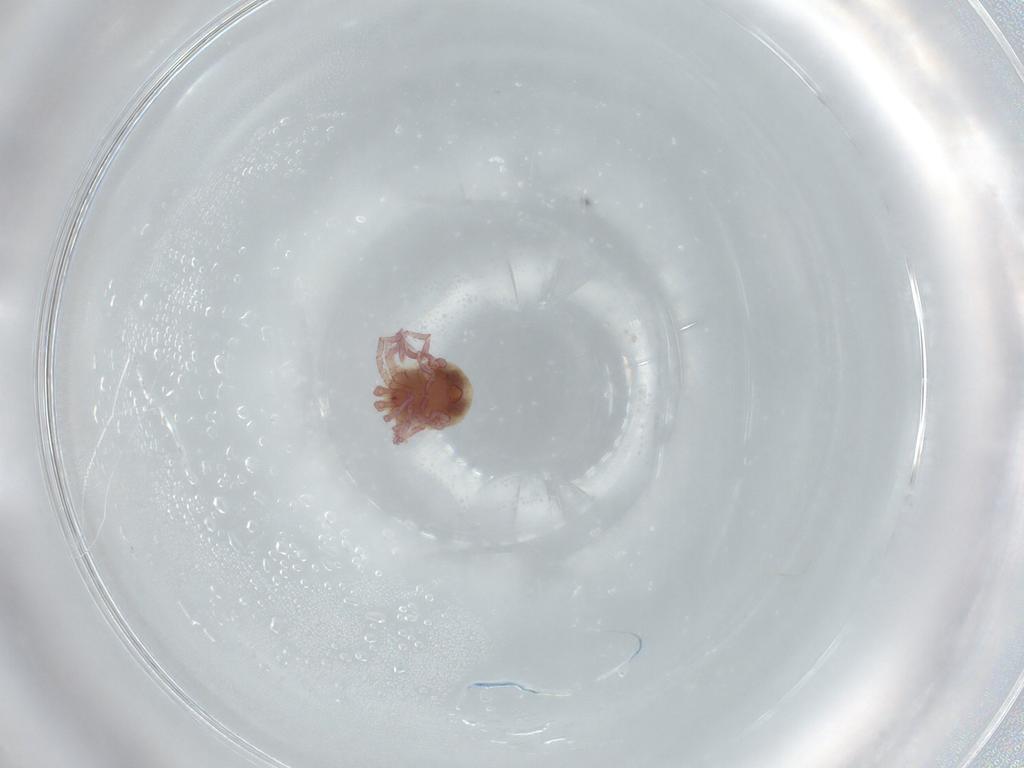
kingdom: Animalia
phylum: Arthropoda
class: Arachnida
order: Trombidiformes
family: Pionidae
